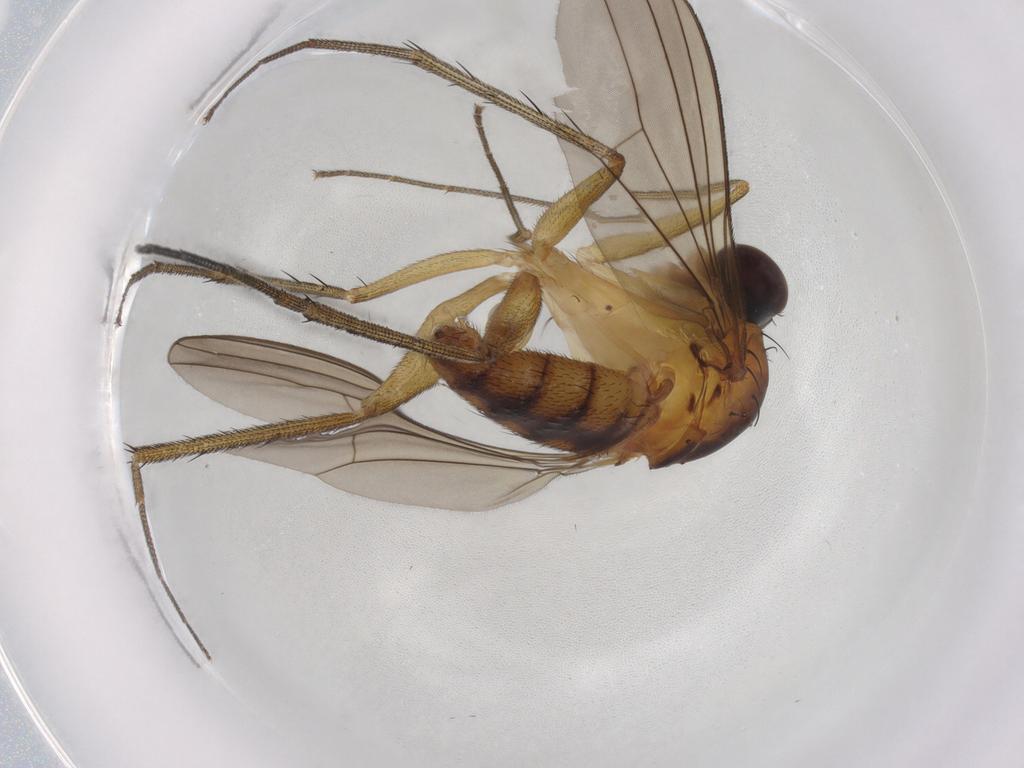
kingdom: Animalia
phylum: Arthropoda
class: Insecta
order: Diptera
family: Dolichopodidae
